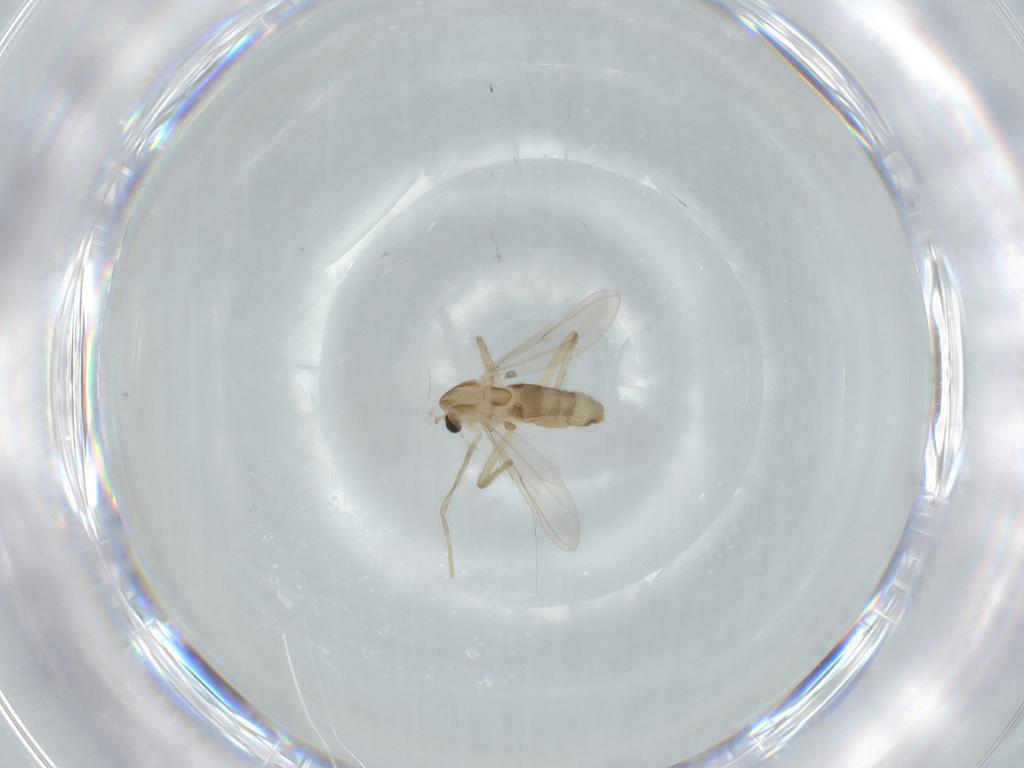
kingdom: Animalia
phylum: Arthropoda
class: Insecta
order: Diptera
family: Chironomidae
